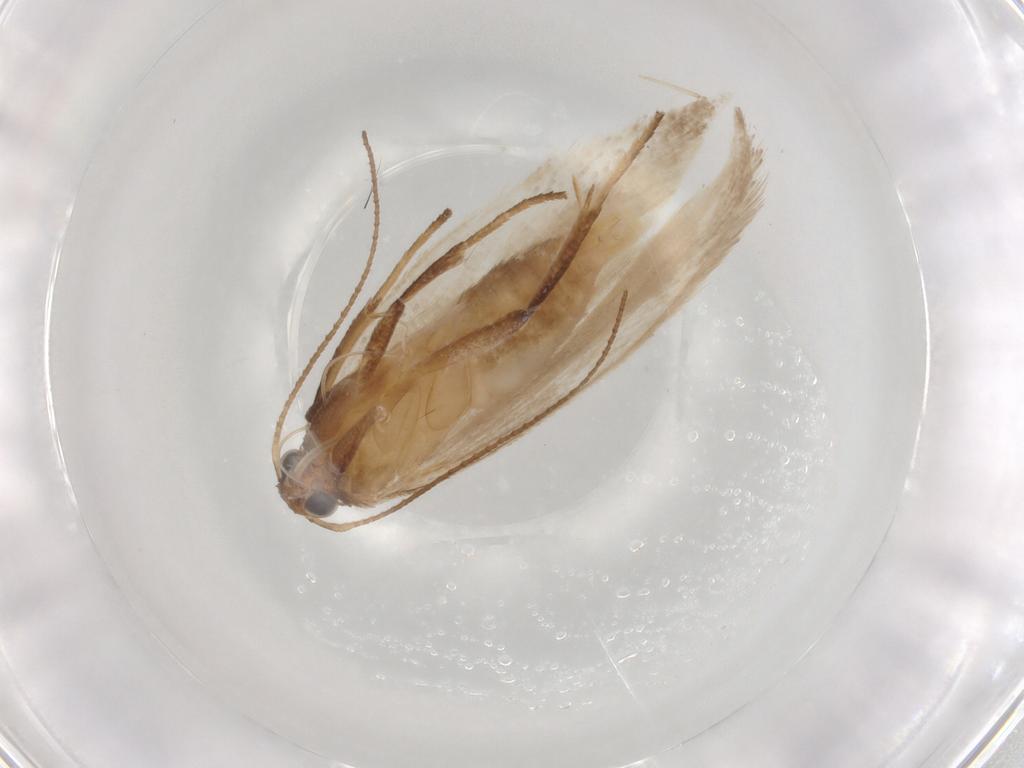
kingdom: Animalia
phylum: Arthropoda
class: Insecta
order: Lepidoptera
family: Gelechiidae
